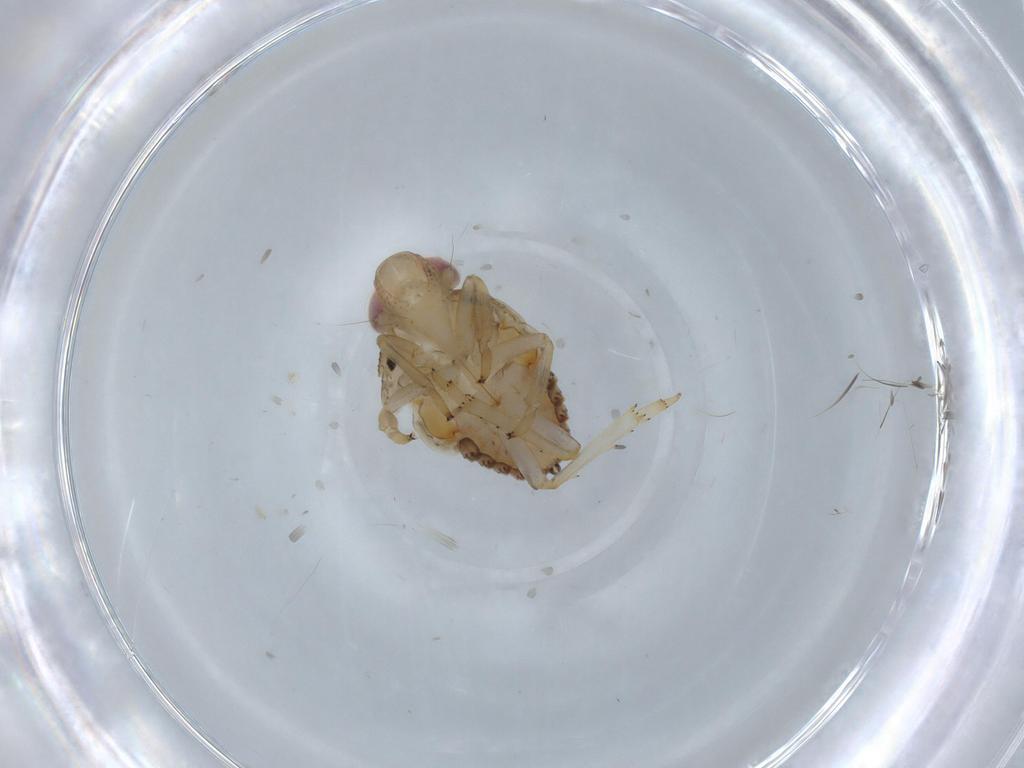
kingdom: Animalia
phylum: Arthropoda
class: Insecta
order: Hemiptera
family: Issidae
